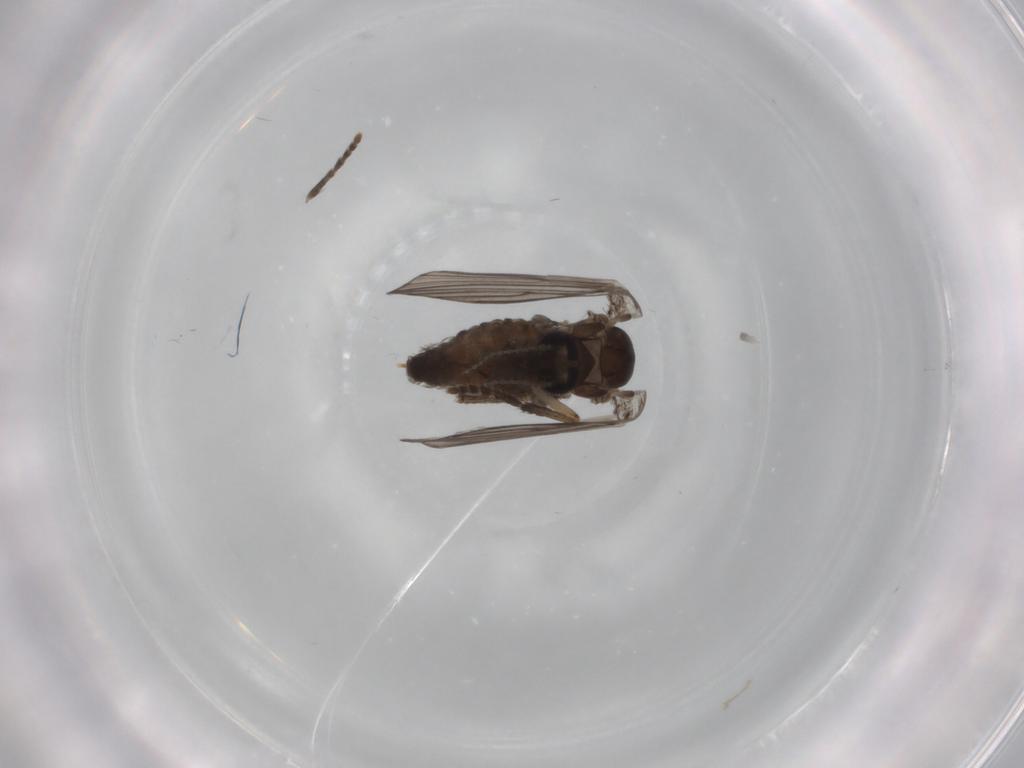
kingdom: Animalia
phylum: Arthropoda
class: Insecta
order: Diptera
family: Psychodidae
